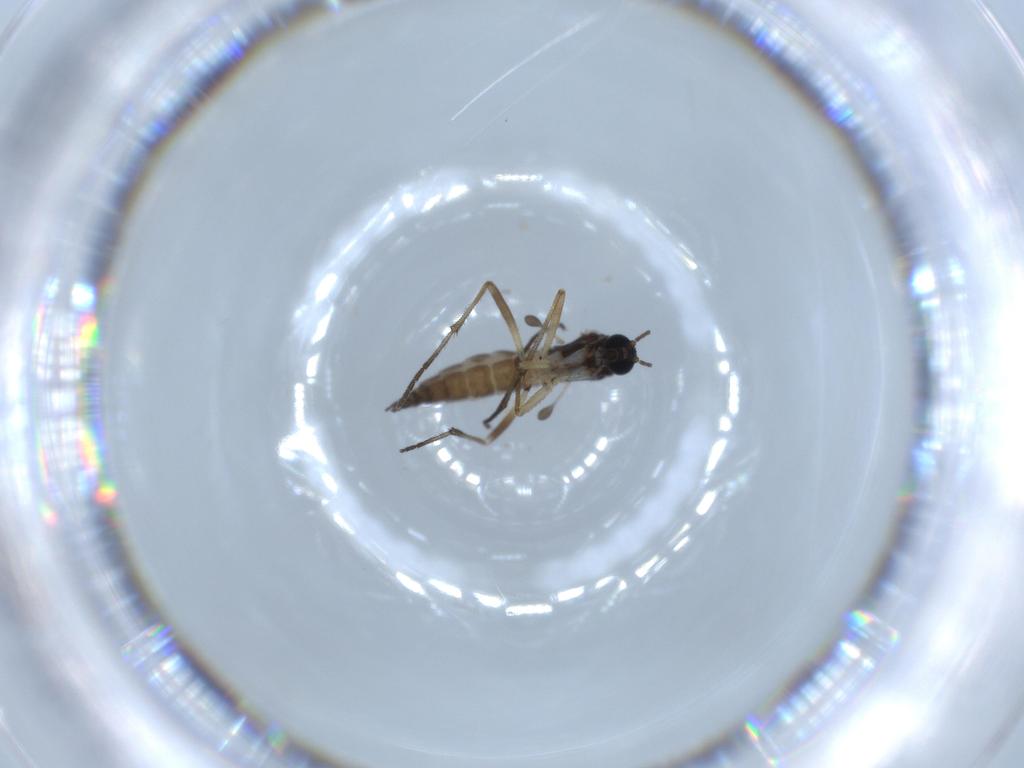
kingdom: Animalia
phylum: Arthropoda
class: Insecta
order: Diptera
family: Sciaridae
